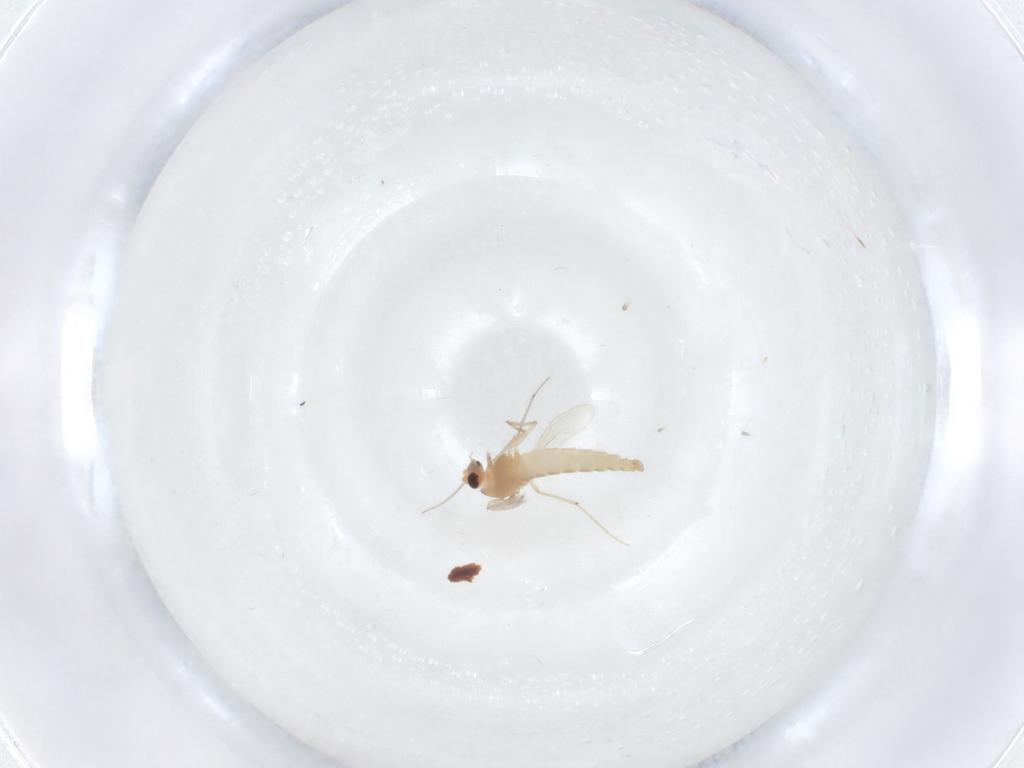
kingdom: Animalia
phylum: Arthropoda
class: Insecta
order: Diptera
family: Chironomidae
